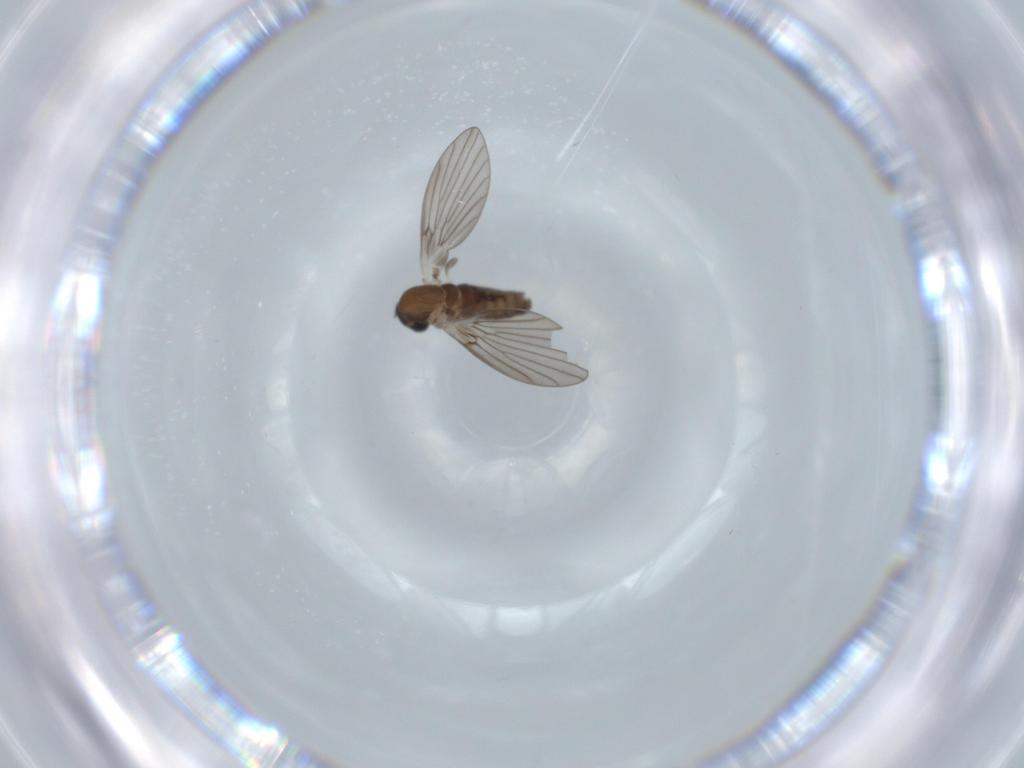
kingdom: Animalia
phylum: Arthropoda
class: Insecta
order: Diptera
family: Psychodidae
